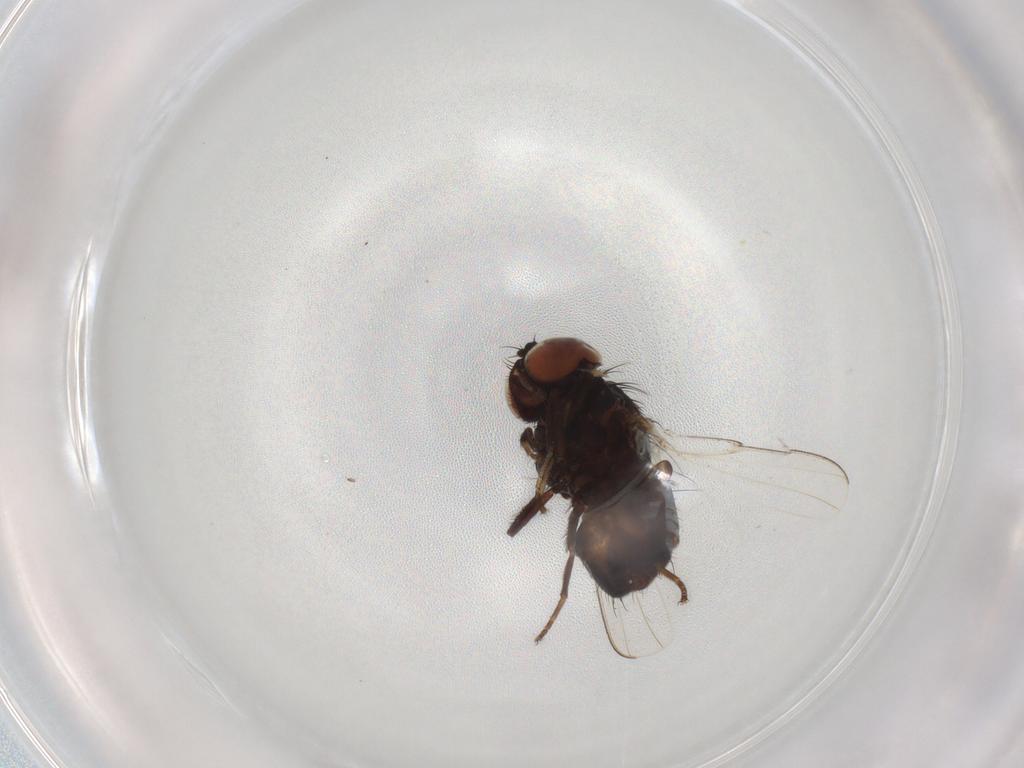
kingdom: Animalia
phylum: Arthropoda
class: Insecta
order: Diptera
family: Milichiidae
